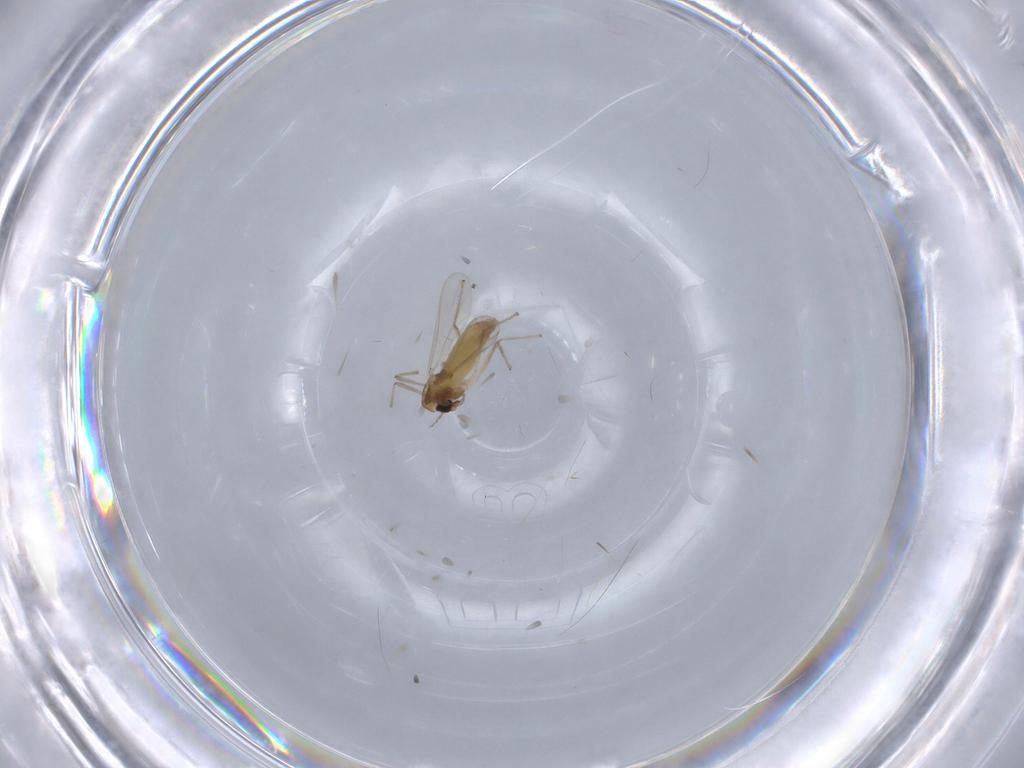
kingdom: Animalia
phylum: Arthropoda
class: Insecta
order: Diptera
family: Chironomidae
